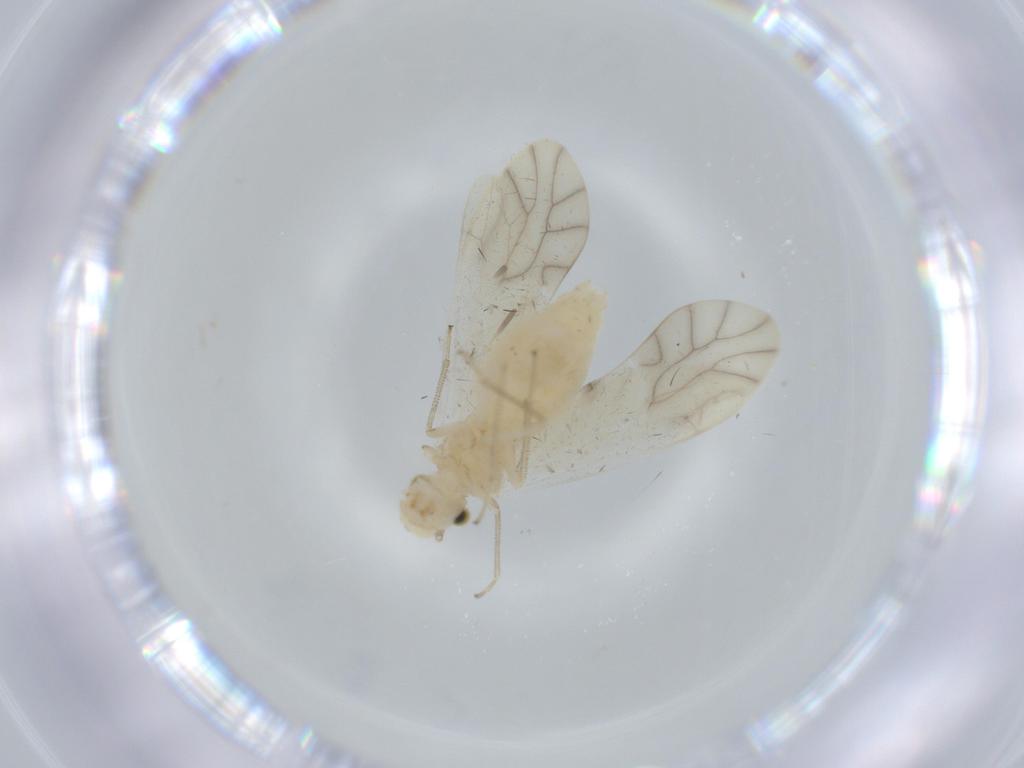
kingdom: Animalia
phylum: Arthropoda
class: Insecta
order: Psocodea
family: Caeciliusidae
